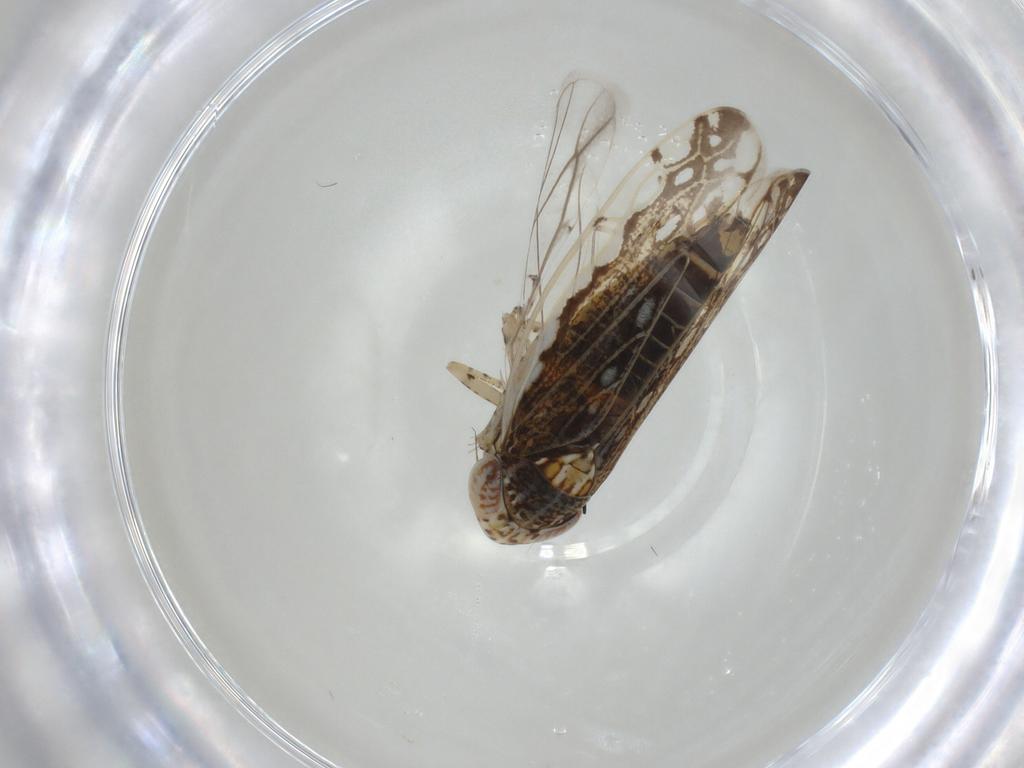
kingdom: Animalia
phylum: Arthropoda
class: Insecta
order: Hemiptera
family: Cicadellidae
